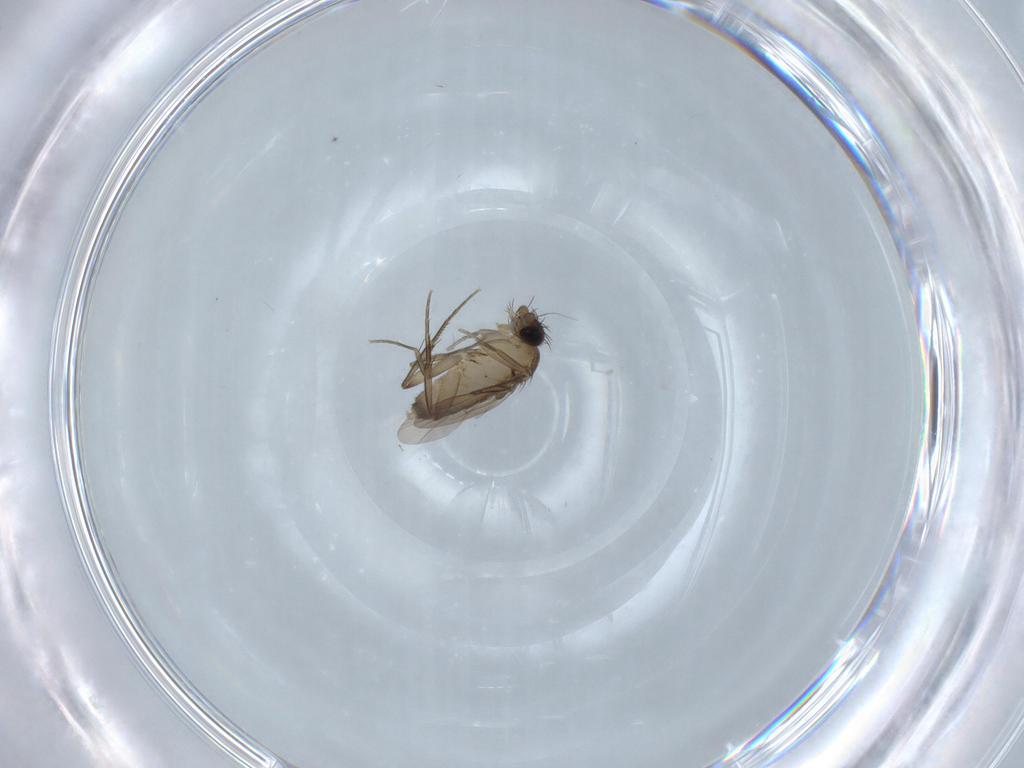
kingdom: Animalia
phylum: Arthropoda
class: Insecta
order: Diptera
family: Phoridae
